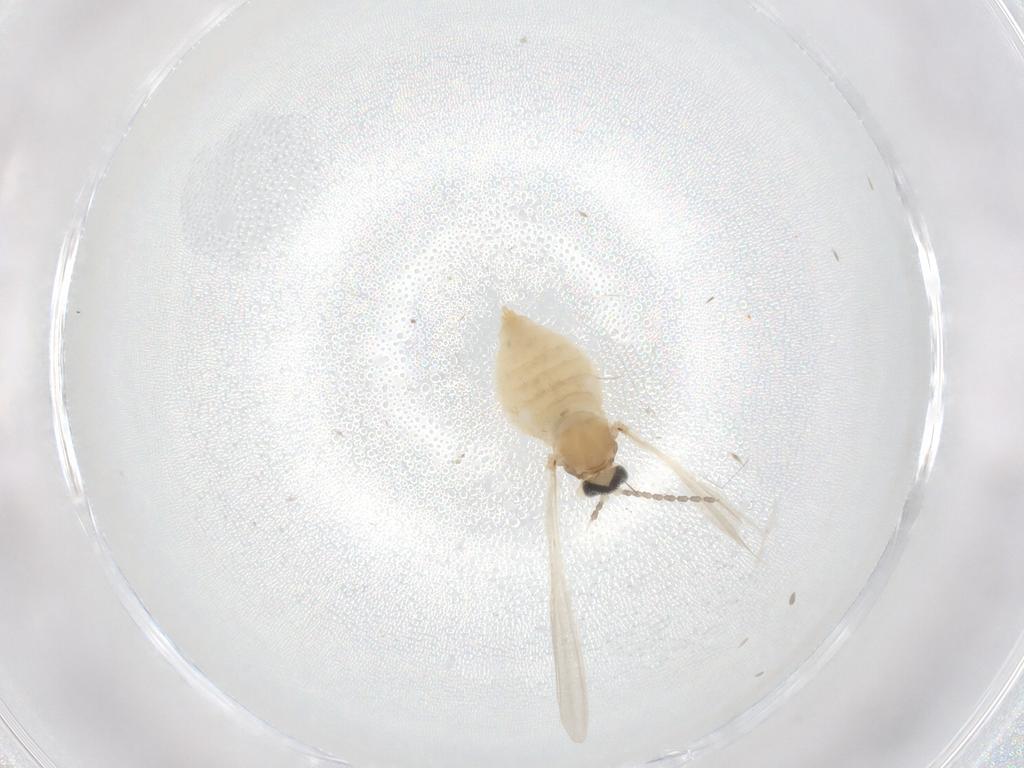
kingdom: Animalia
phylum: Arthropoda
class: Insecta
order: Diptera
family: Cecidomyiidae
